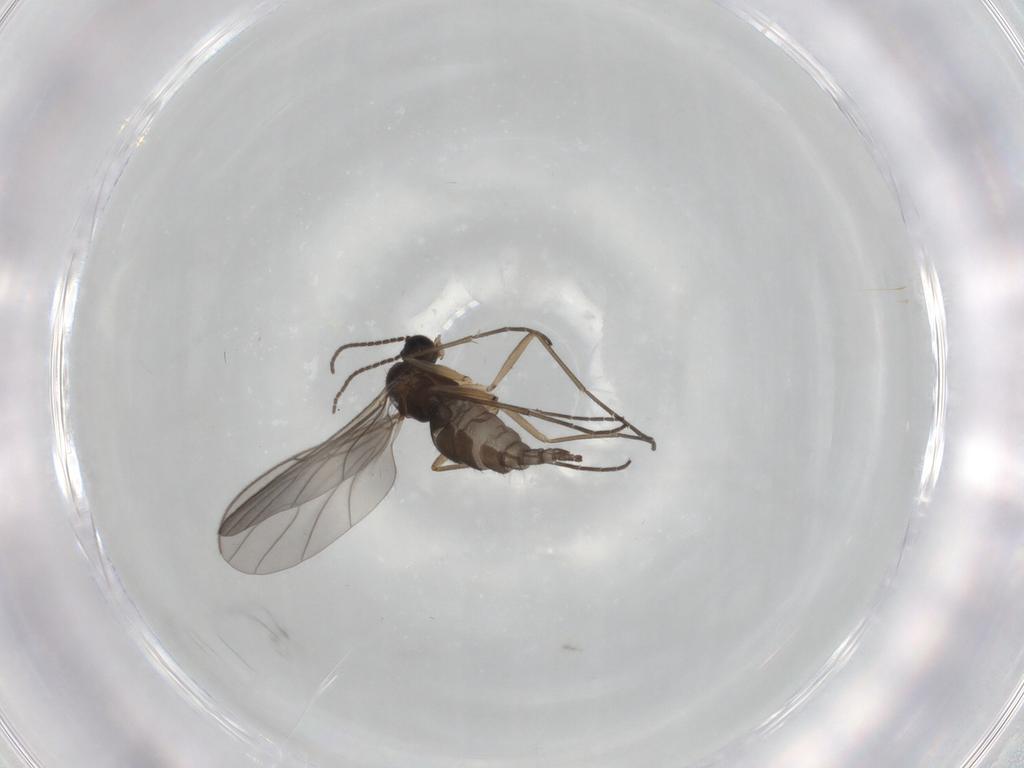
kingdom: Animalia
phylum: Arthropoda
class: Insecta
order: Diptera
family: Sciaridae
